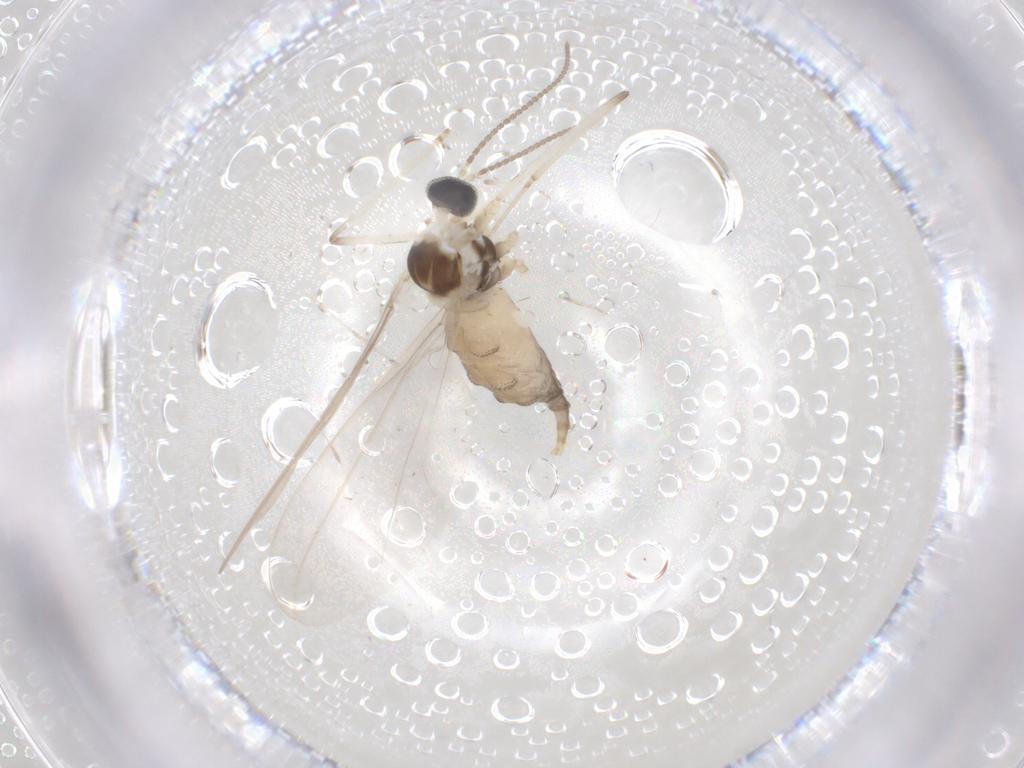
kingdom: Animalia
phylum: Arthropoda
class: Insecta
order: Diptera
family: Cecidomyiidae
